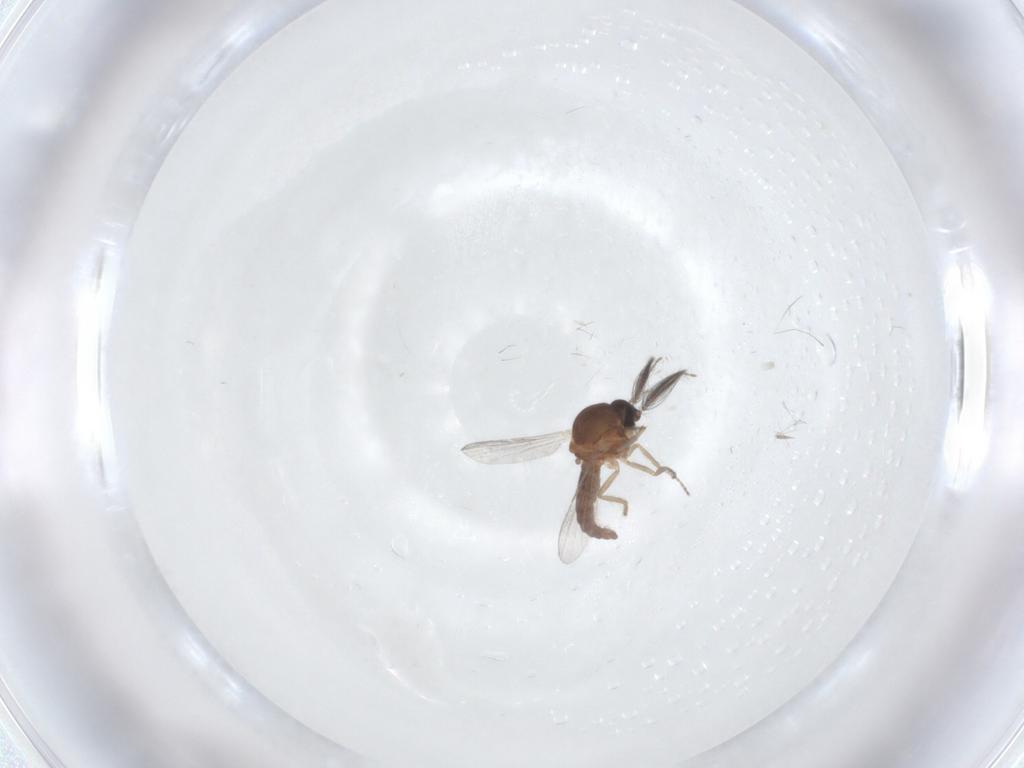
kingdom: Animalia
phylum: Arthropoda
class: Insecta
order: Diptera
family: Ceratopogonidae
